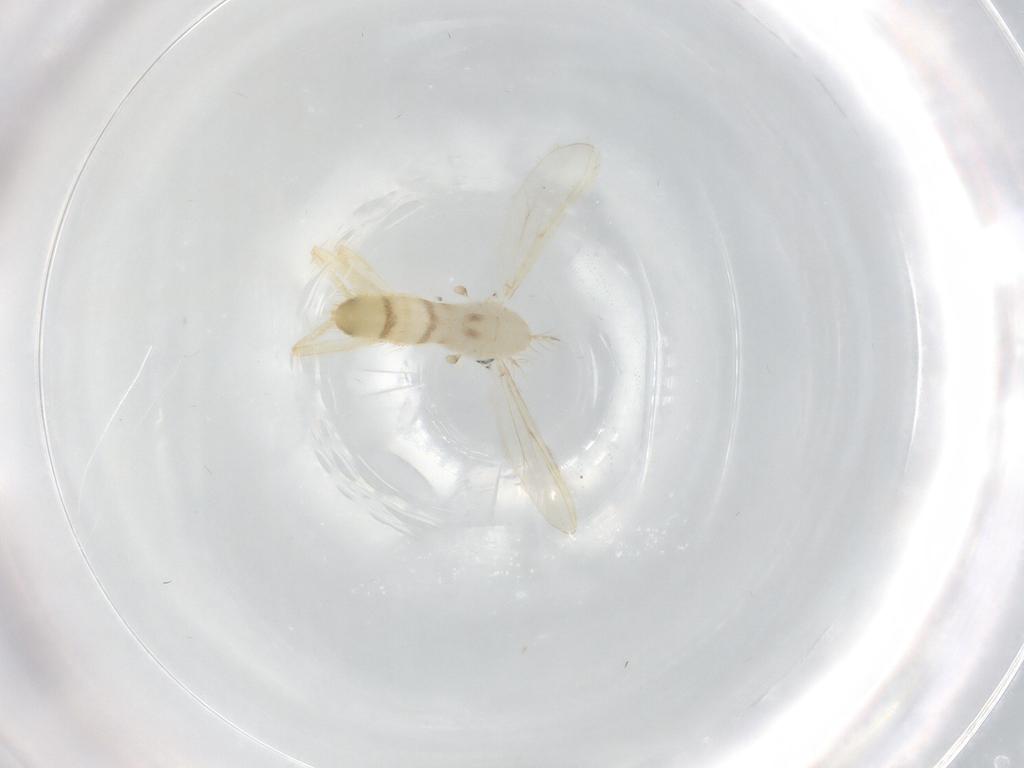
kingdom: Animalia
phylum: Arthropoda
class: Insecta
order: Diptera
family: Chironomidae
